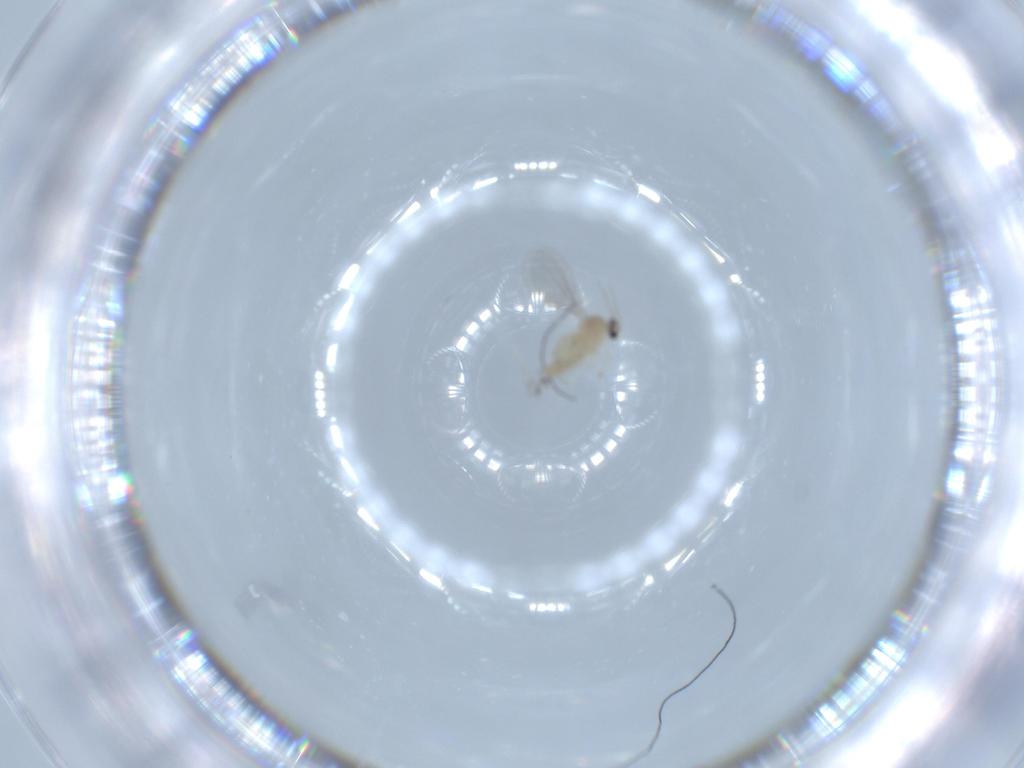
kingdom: Animalia
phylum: Arthropoda
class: Insecta
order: Diptera
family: Cecidomyiidae
